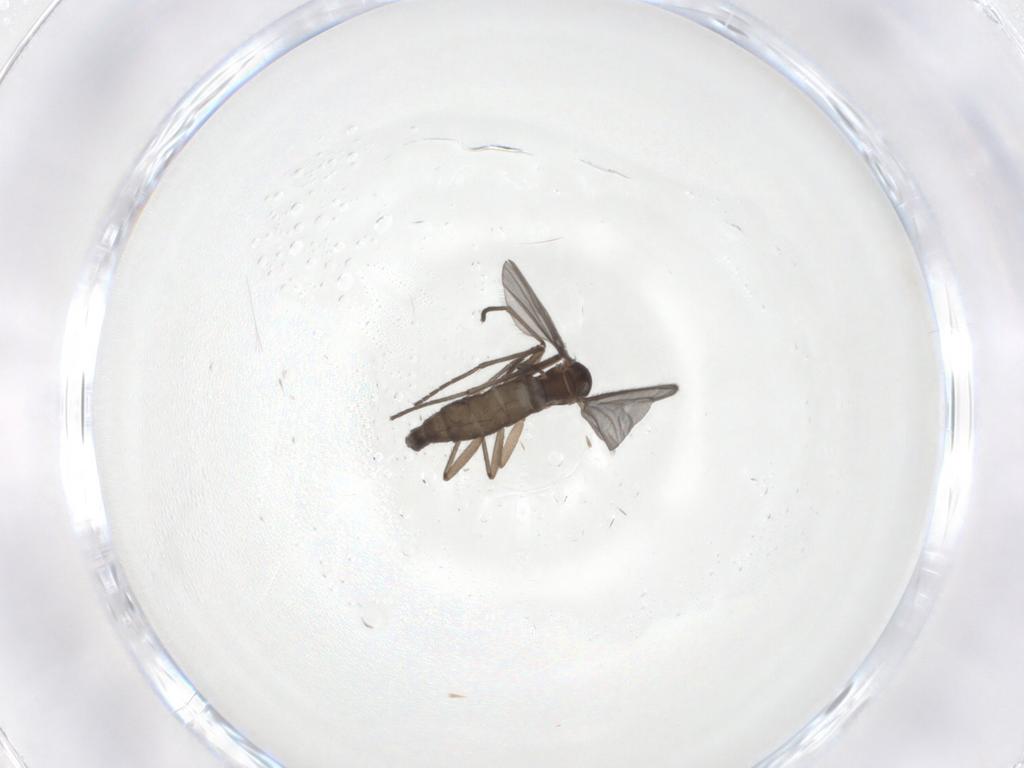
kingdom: Animalia
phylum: Arthropoda
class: Insecta
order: Diptera
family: Sciaridae
